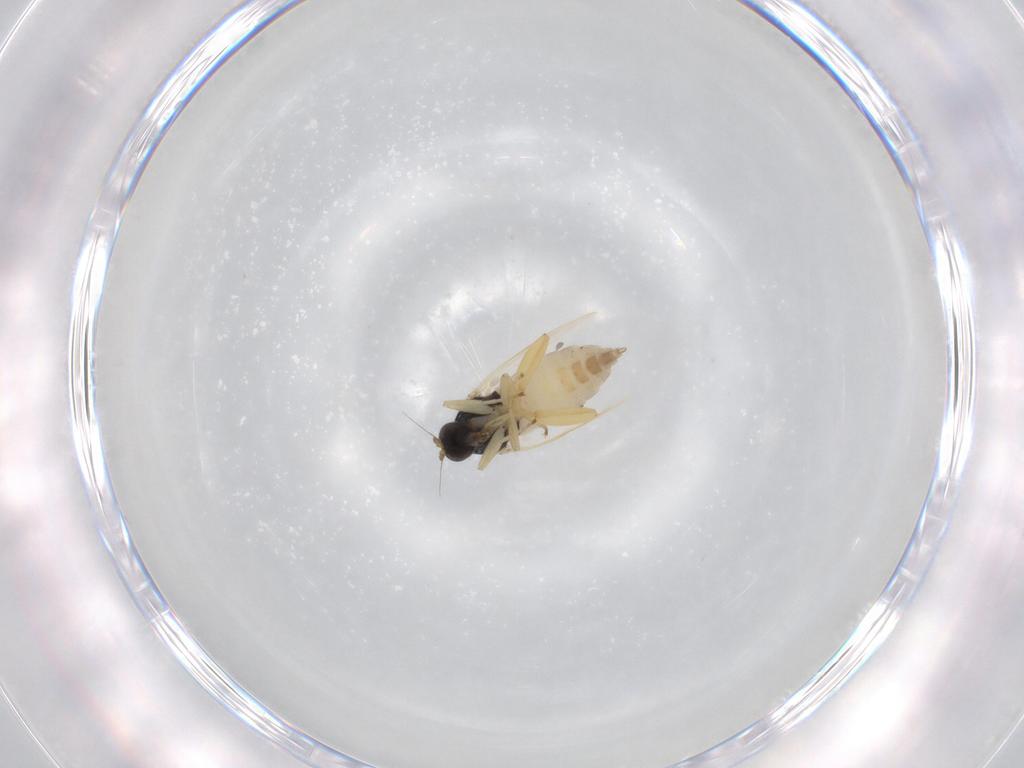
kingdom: Animalia
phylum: Arthropoda
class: Insecta
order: Diptera
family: Hybotidae
